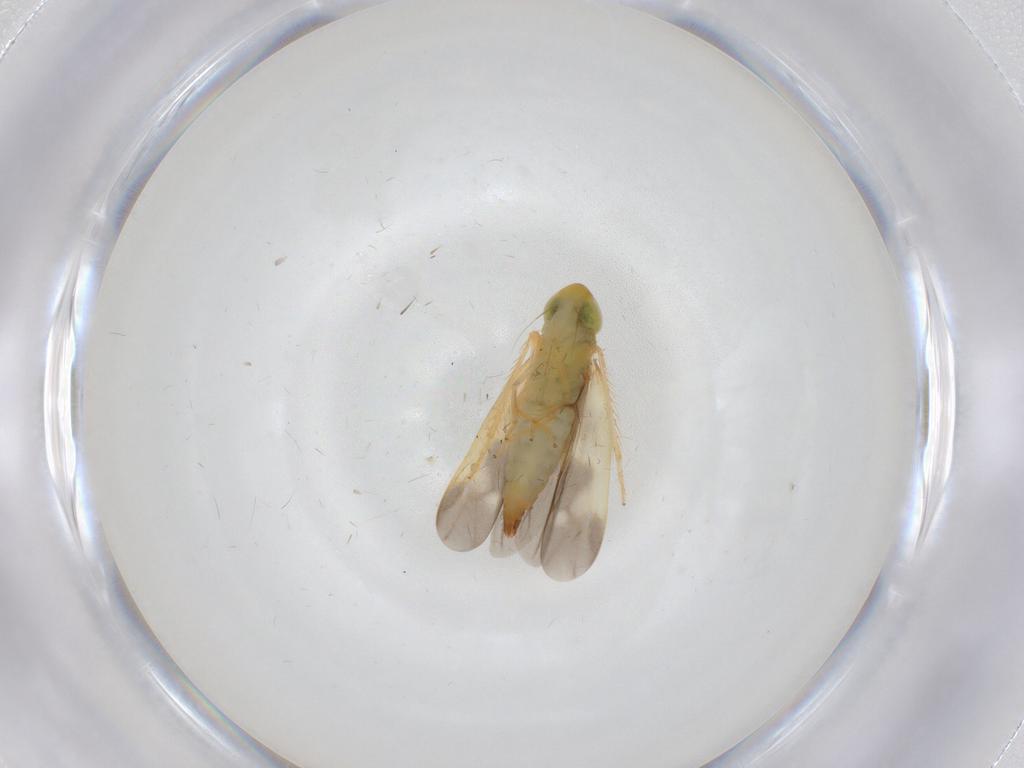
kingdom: Animalia
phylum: Arthropoda
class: Insecta
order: Hemiptera
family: Cicadellidae
